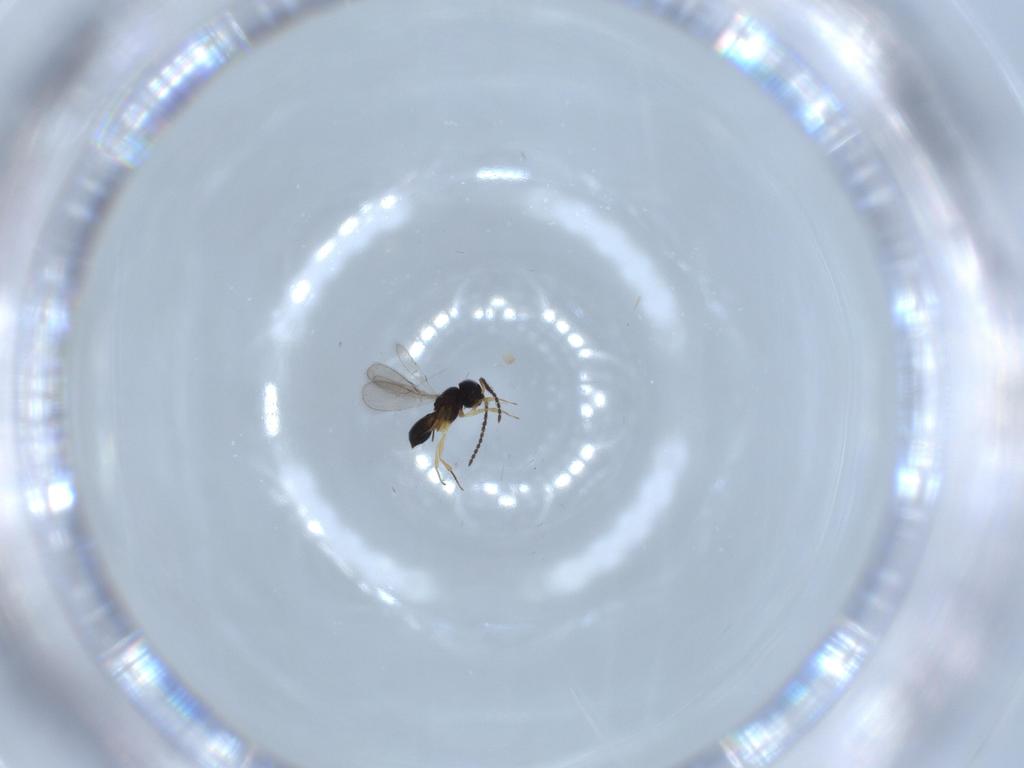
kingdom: Animalia
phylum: Arthropoda
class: Insecta
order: Hymenoptera
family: Scelionidae
